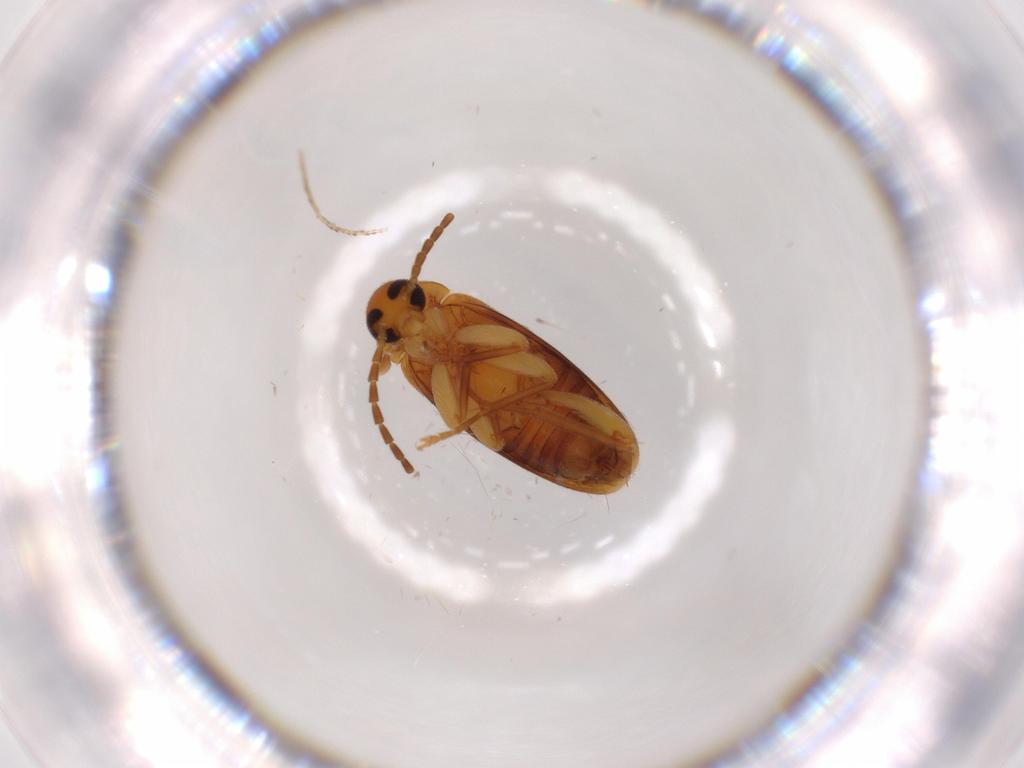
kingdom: Animalia
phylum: Arthropoda
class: Insecta
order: Coleoptera
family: Scraptiidae
